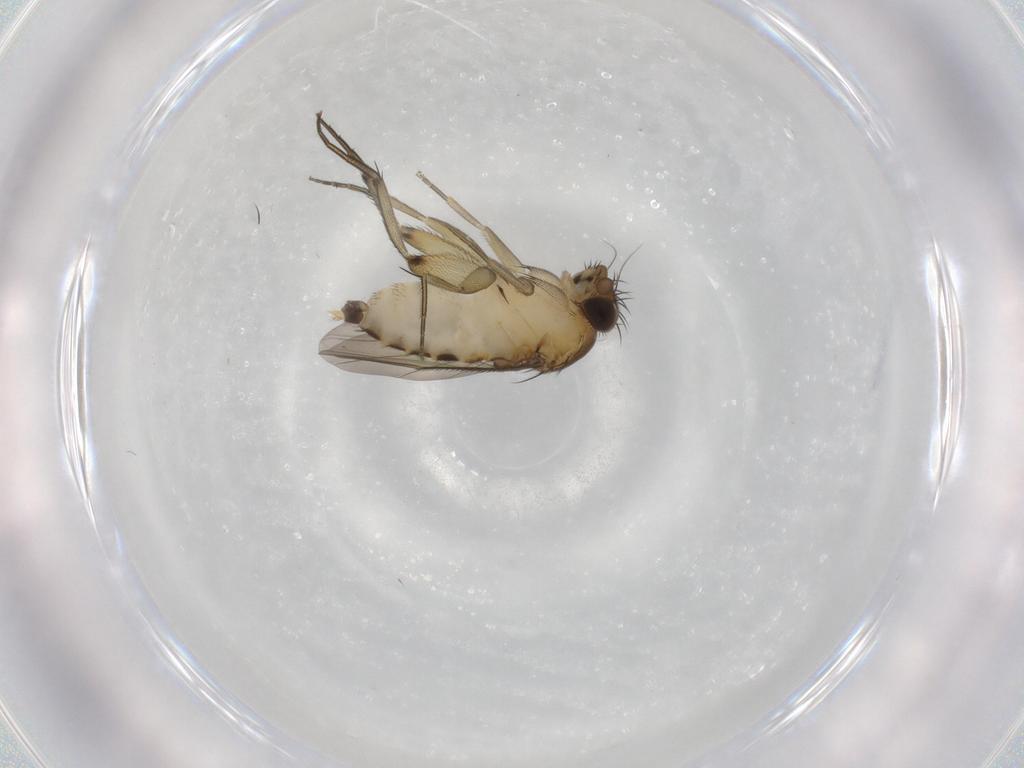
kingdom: Animalia
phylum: Arthropoda
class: Insecta
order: Diptera
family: Phoridae
